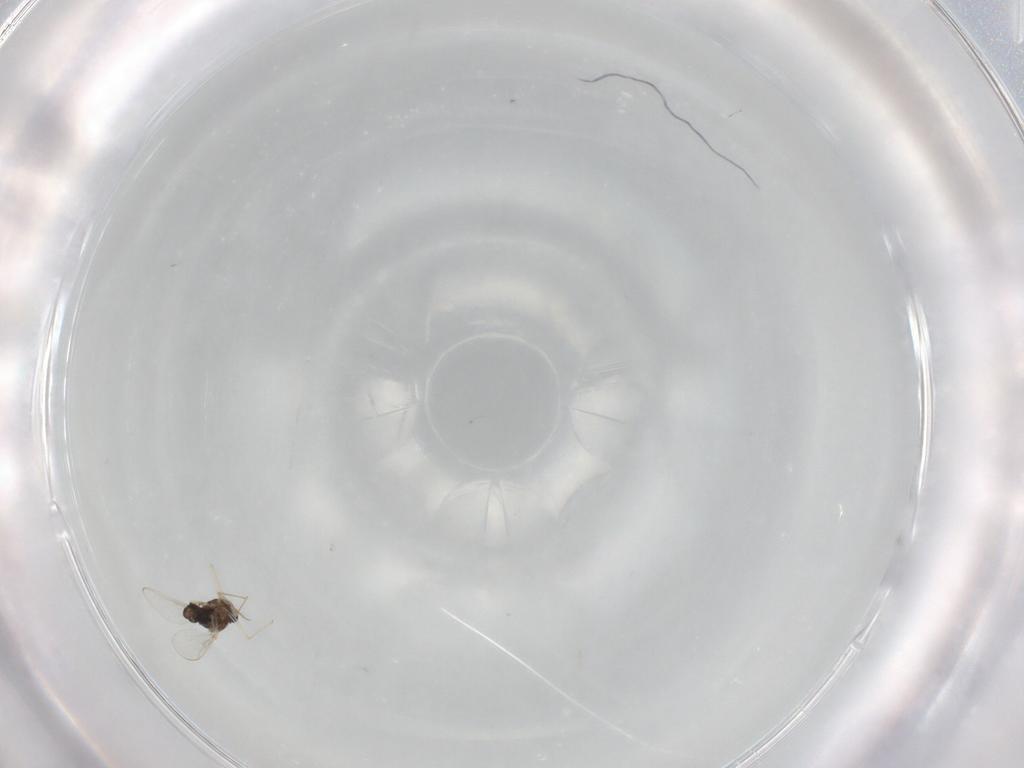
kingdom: Animalia
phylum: Arthropoda
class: Insecta
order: Diptera
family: Chironomidae
